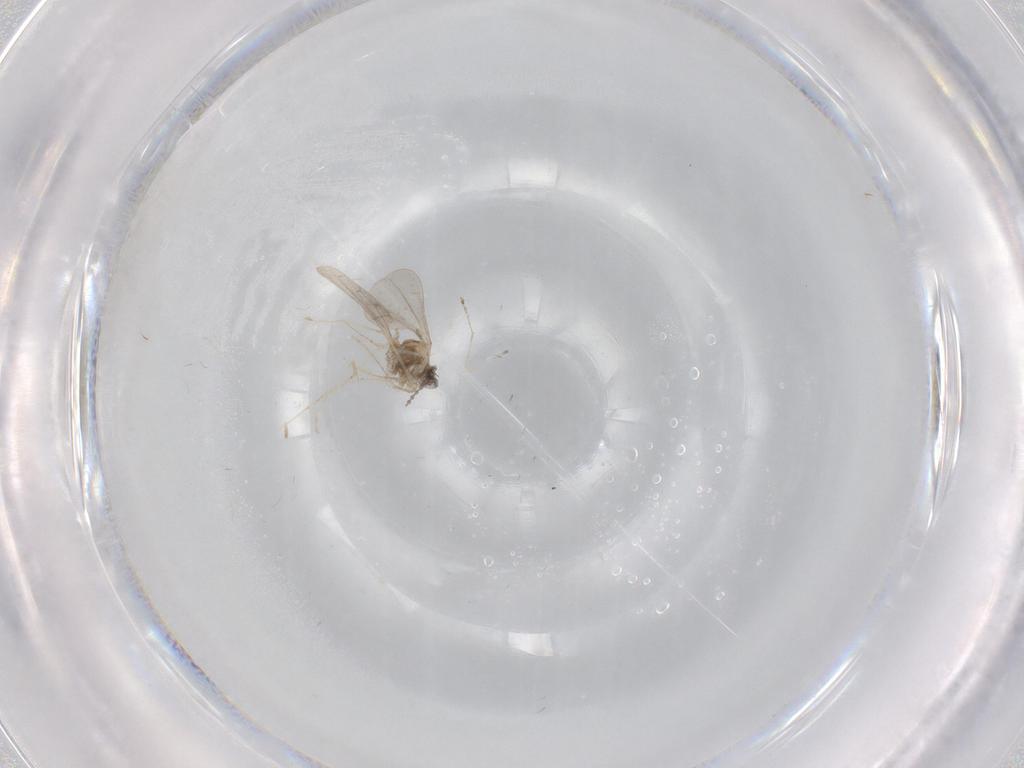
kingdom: Animalia
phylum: Arthropoda
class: Insecta
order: Diptera
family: Cecidomyiidae
